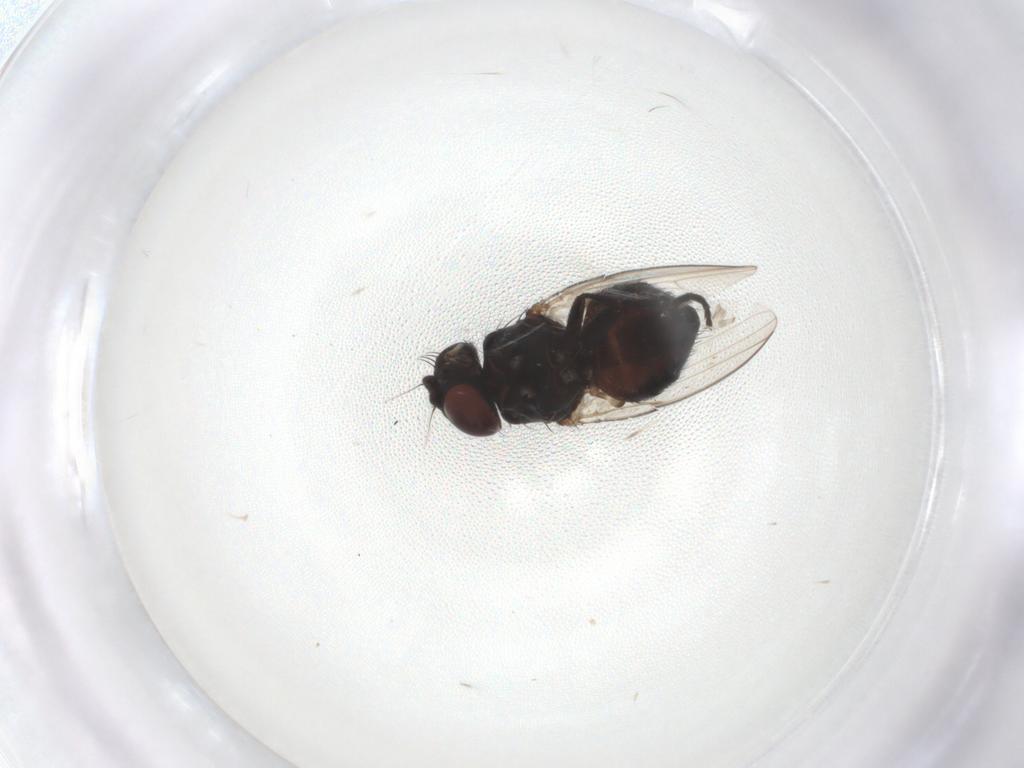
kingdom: Animalia
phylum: Arthropoda
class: Insecta
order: Diptera
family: Chloropidae
